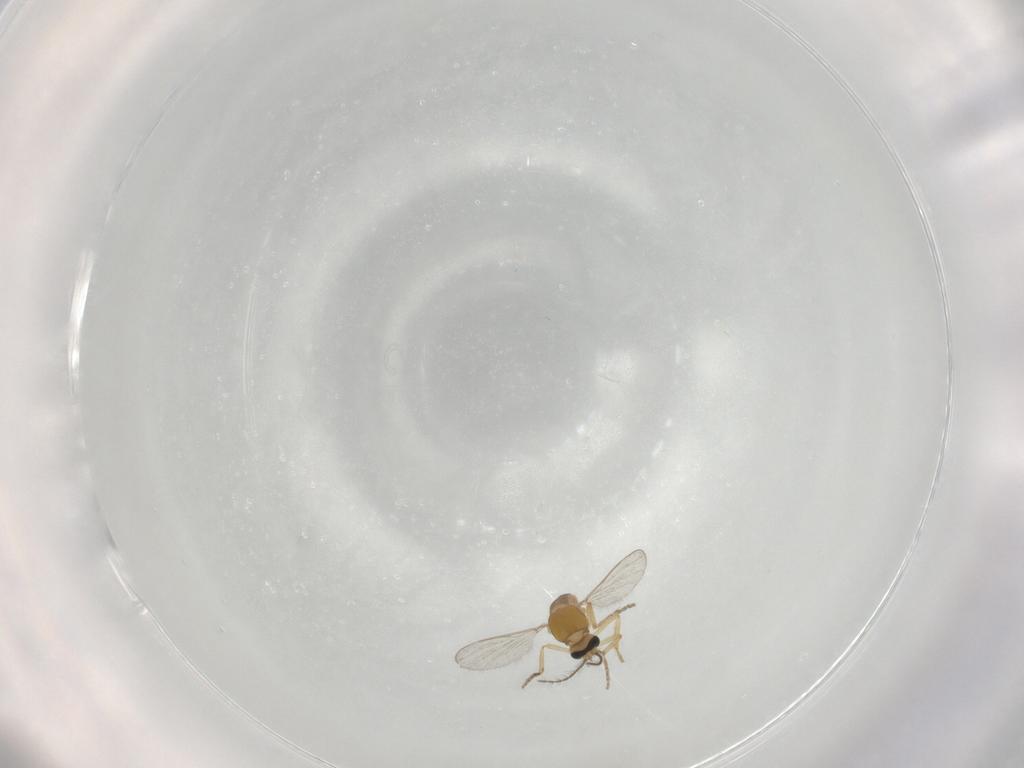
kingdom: Animalia
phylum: Arthropoda
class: Insecta
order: Diptera
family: Ceratopogonidae
